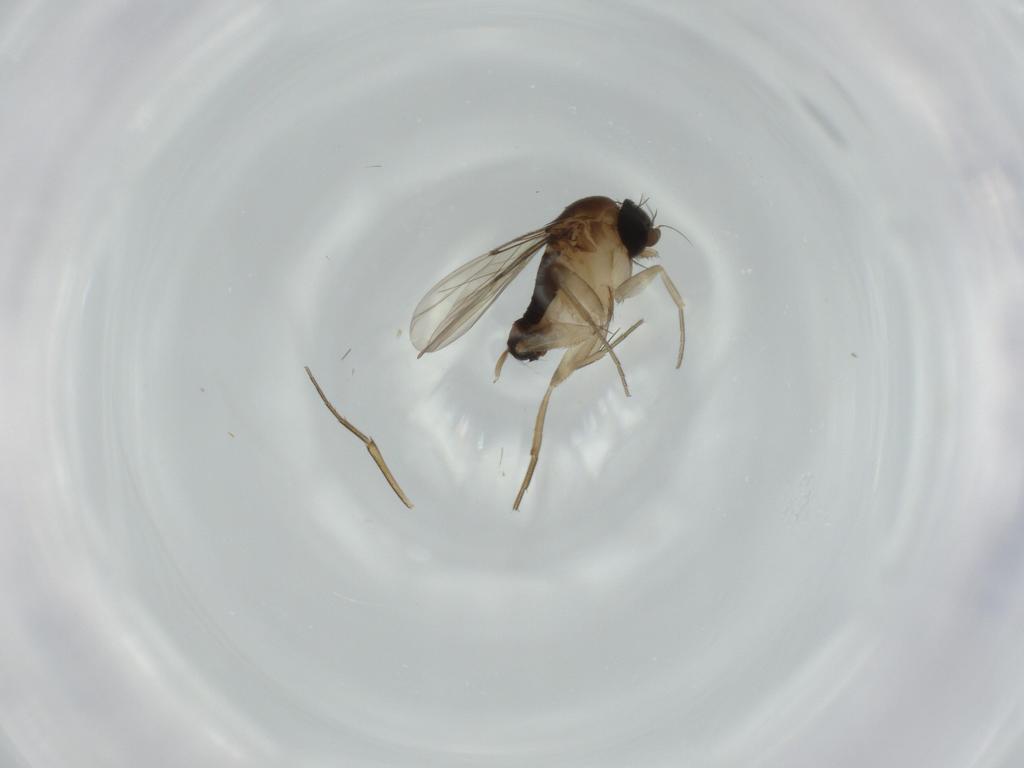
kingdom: Animalia
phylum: Arthropoda
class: Insecta
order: Diptera
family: Phoridae
